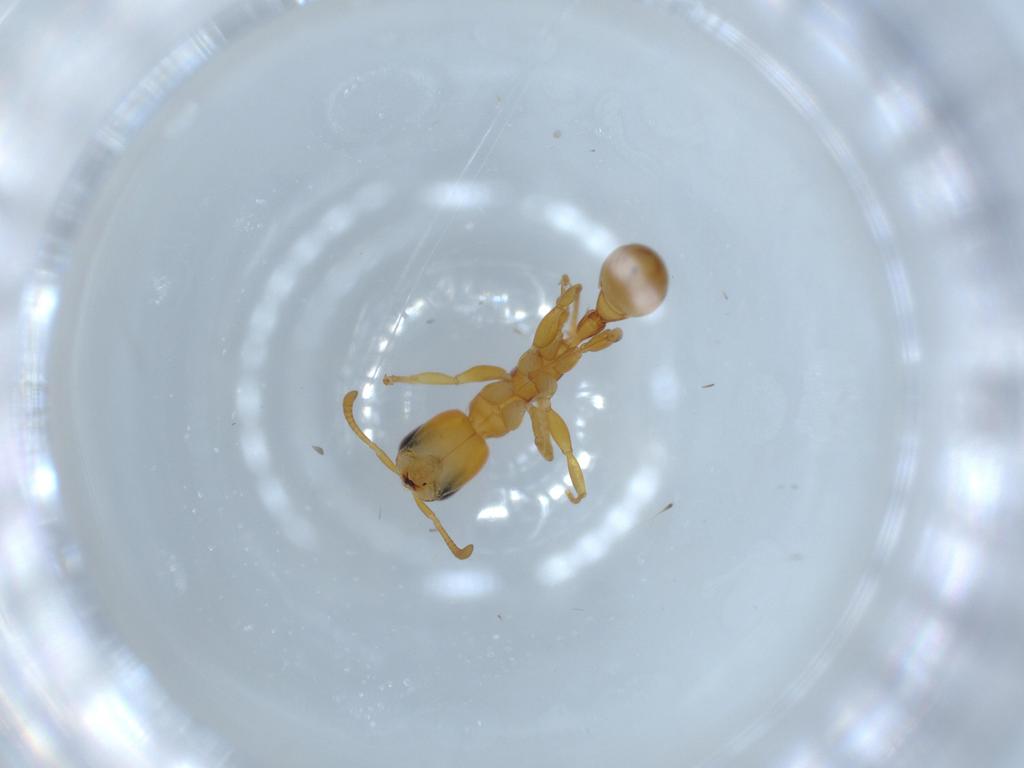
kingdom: Animalia
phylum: Arthropoda
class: Insecta
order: Hymenoptera
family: Formicidae
